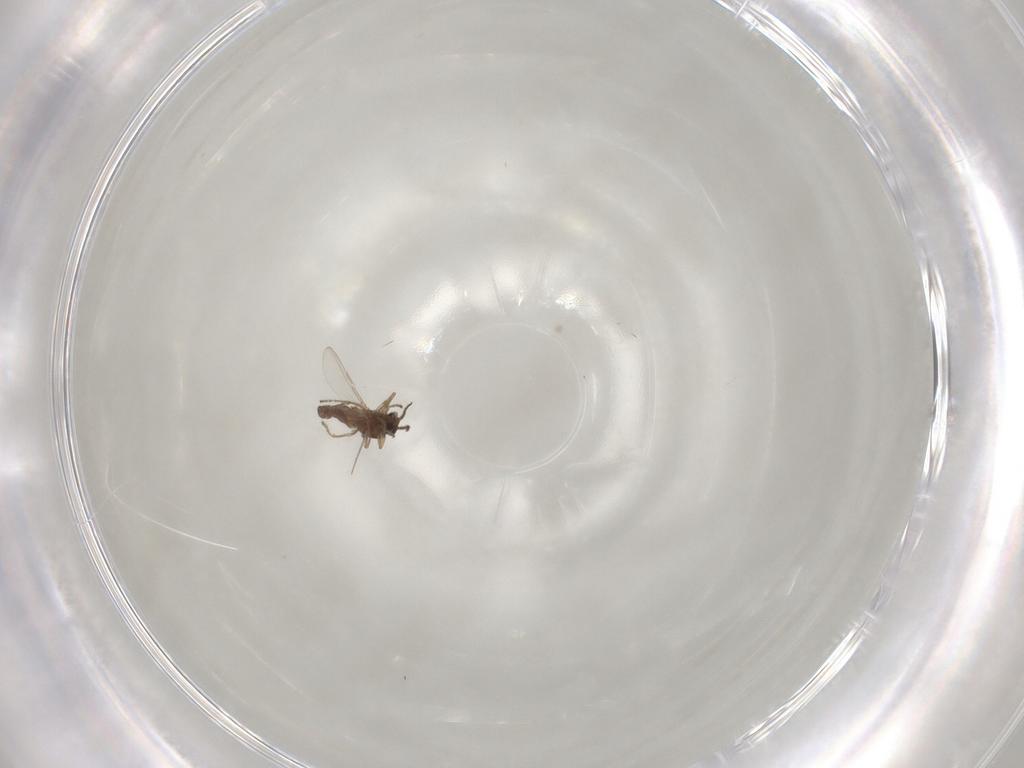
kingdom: Animalia
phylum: Arthropoda
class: Insecta
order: Diptera
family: Ceratopogonidae
